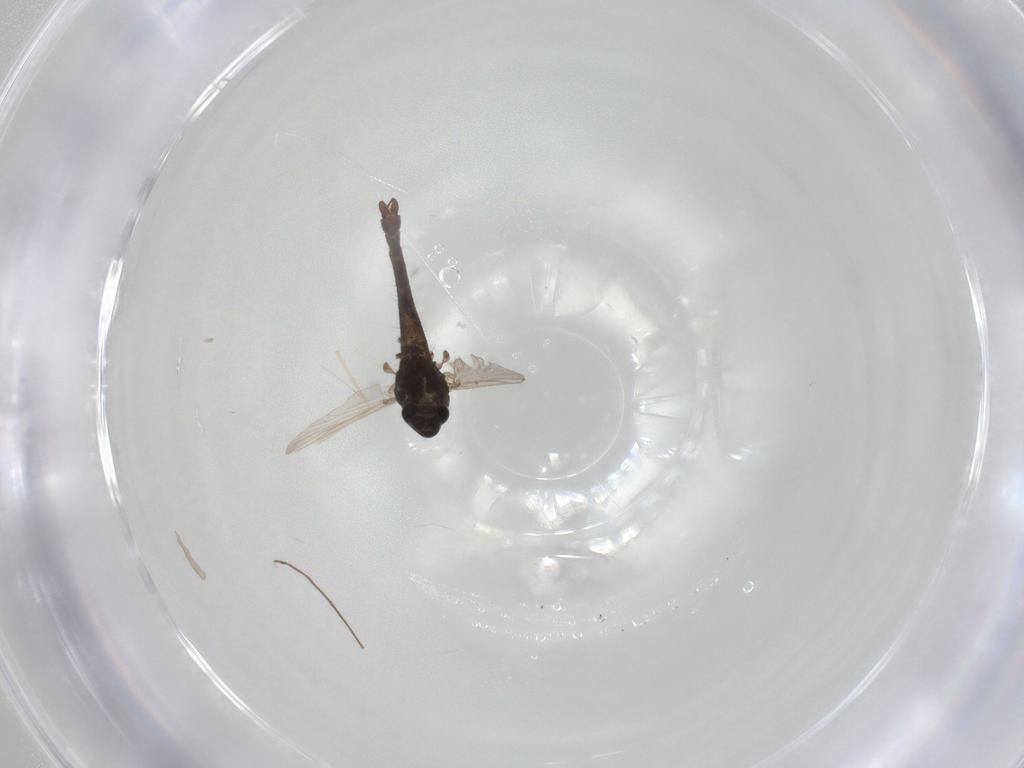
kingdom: Animalia
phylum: Arthropoda
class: Insecta
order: Diptera
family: Chironomidae
